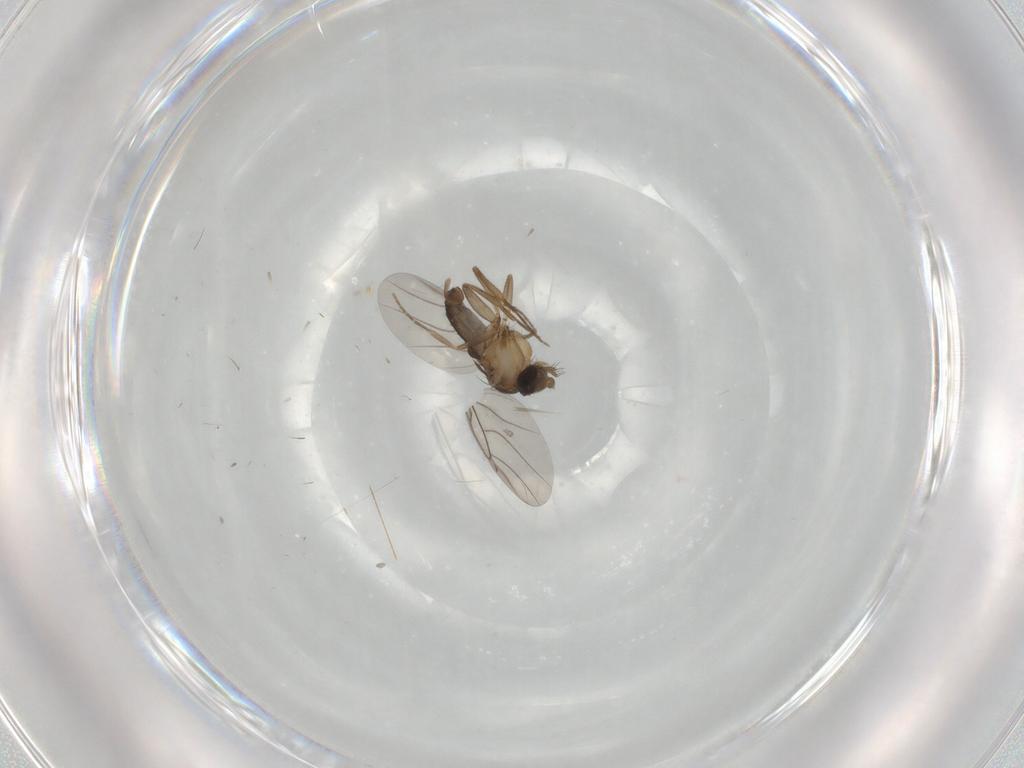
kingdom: Animalia
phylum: Arthropoda
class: Insecta
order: Diptera
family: Phoridae
